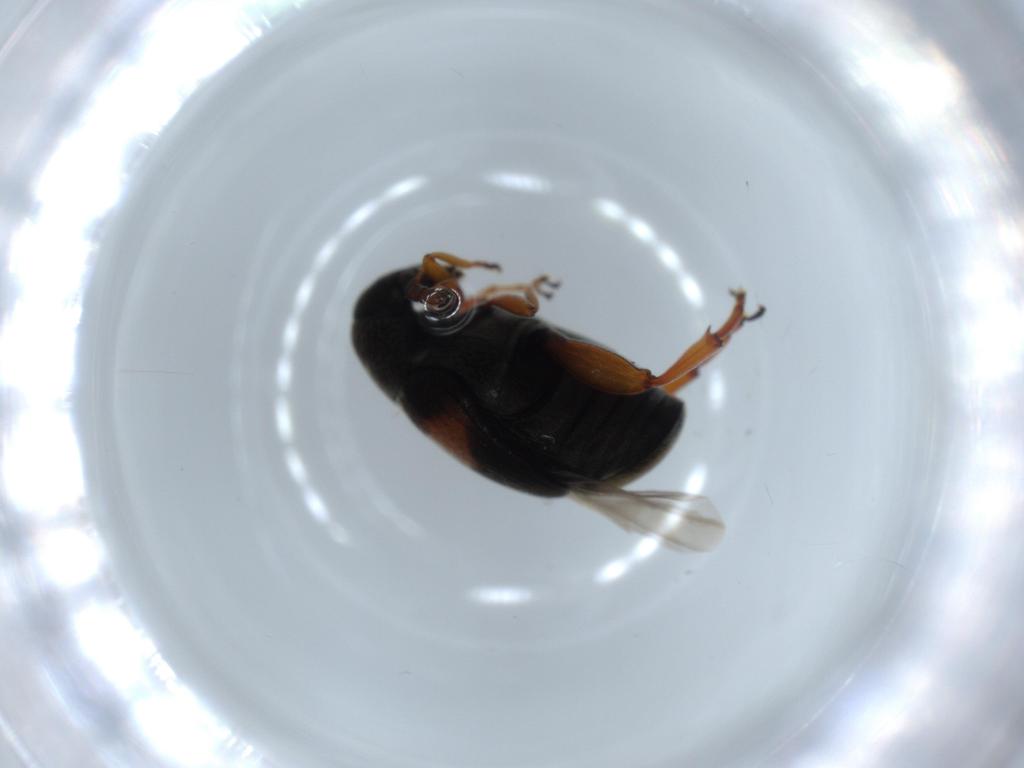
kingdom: Animalia
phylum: Arthropoda
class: Insecta
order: Coleoptera
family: Chrysomelidae
